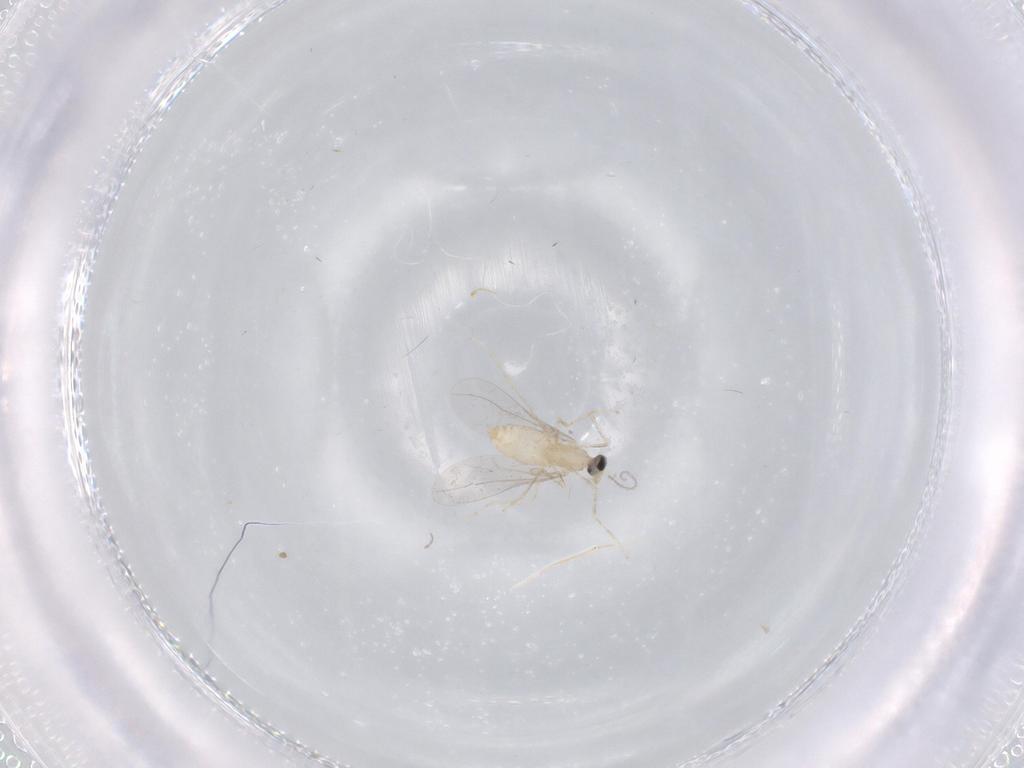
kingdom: Animalia
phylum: Arthropoda
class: Insecta
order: Diptera
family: Cecidomyiidae
